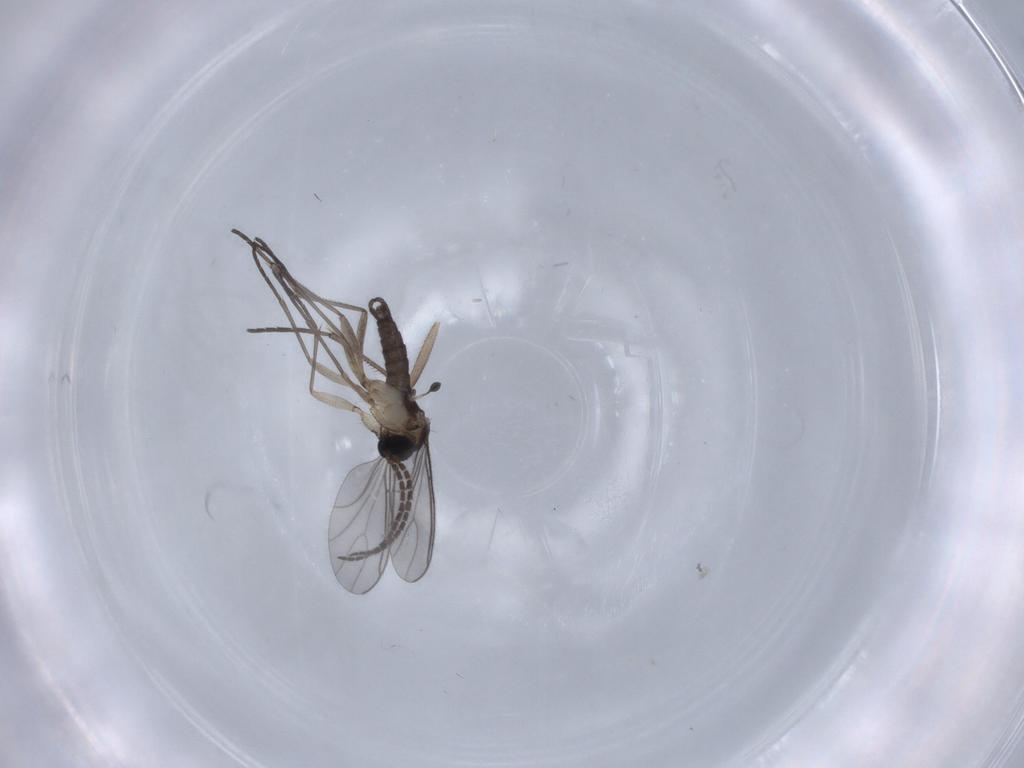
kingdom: Animalia
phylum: Arthropoda
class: Insecta
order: Diptera
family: Sciaridae
